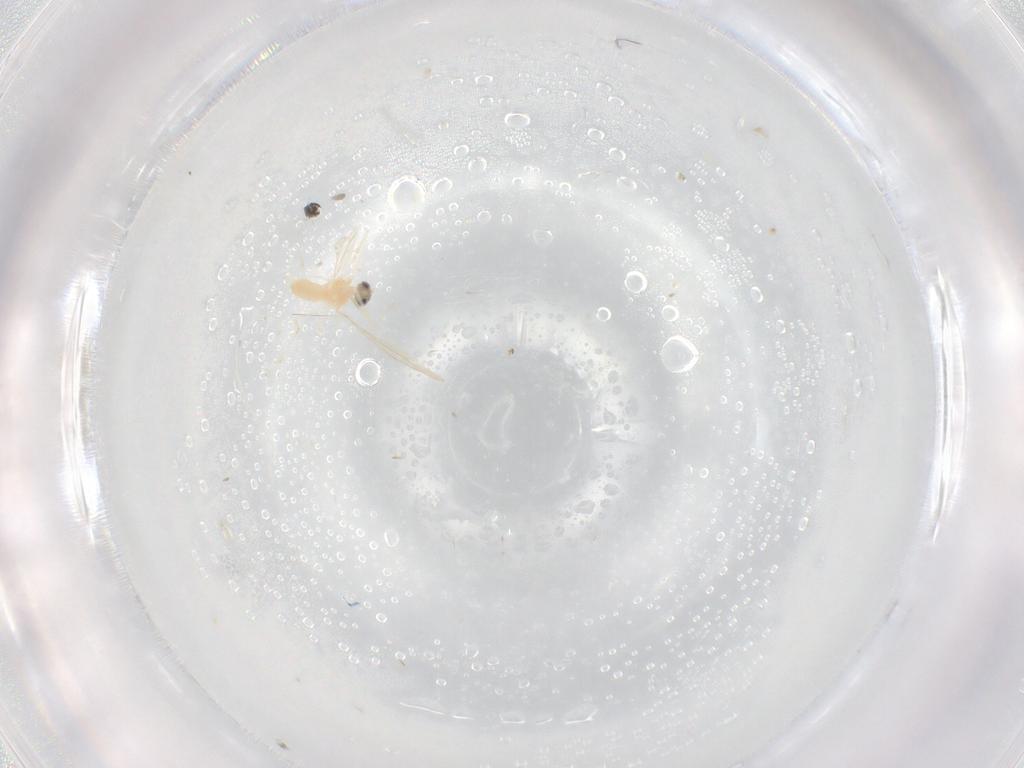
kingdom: Animalia
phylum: Arthropoda
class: Insecta
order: Diptera
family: Cecidomyiidae
